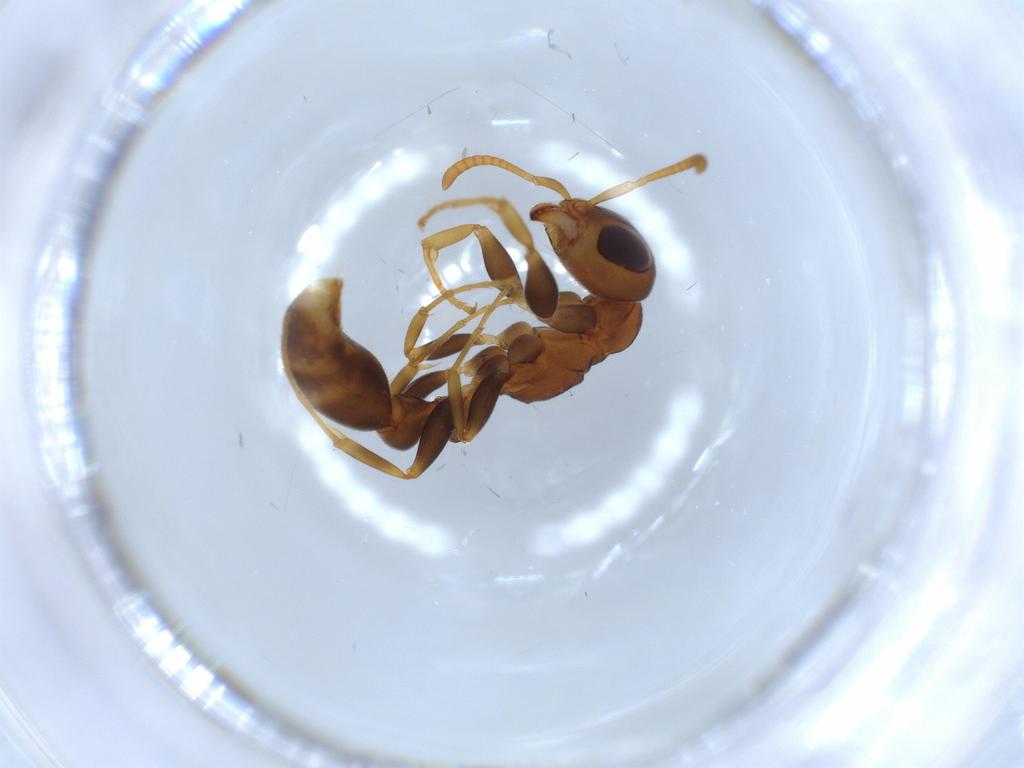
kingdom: Animalia
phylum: Arthropoda
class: Insecta
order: Hymenoptera
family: Formicidae
